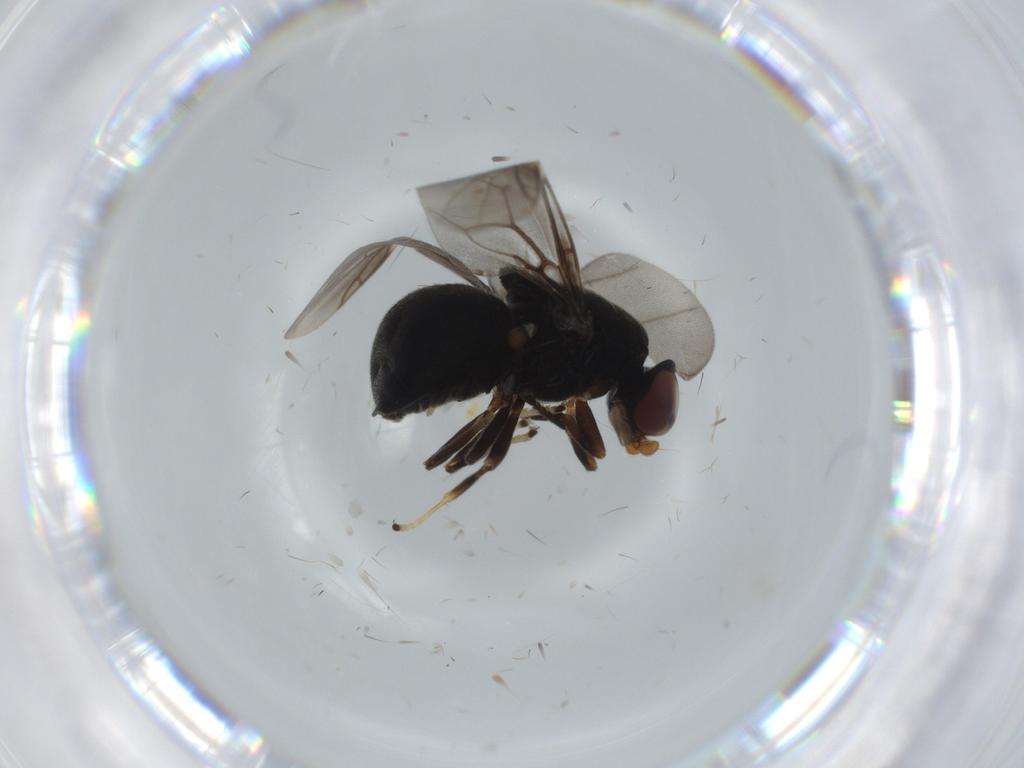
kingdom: Animalia
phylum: Arthropoda
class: Insecta
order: Diptera
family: Stratiomyidae
